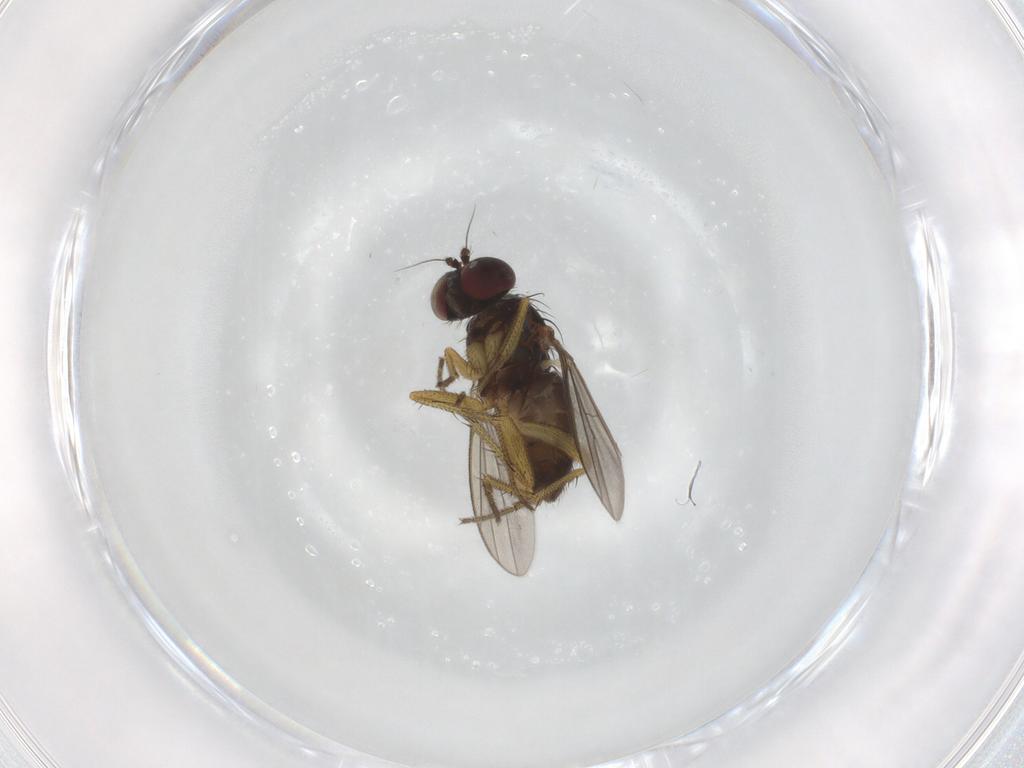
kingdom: Animalia
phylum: Arthropoda
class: Insecta
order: Diptera
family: Dolichopodidae
